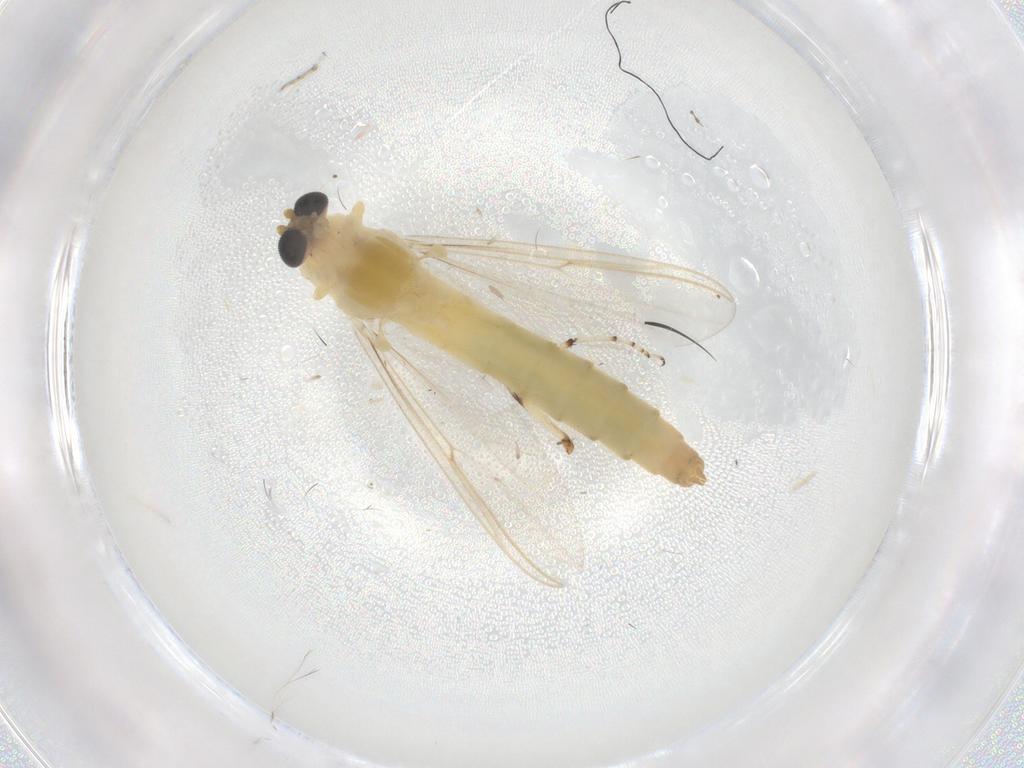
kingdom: Animalia
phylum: Arthropoda
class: Insecta
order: Diptera
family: Chironomidae
